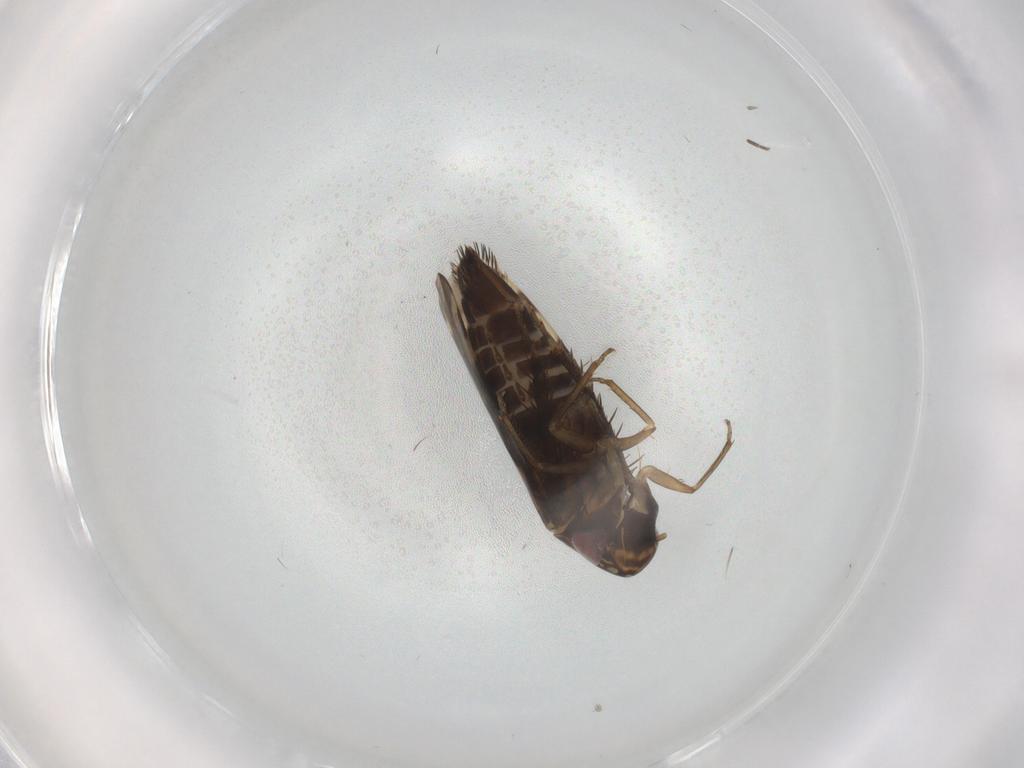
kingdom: Animalia
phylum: Arthropoda
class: Insecta
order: Hemiptera
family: Cicadellidae
